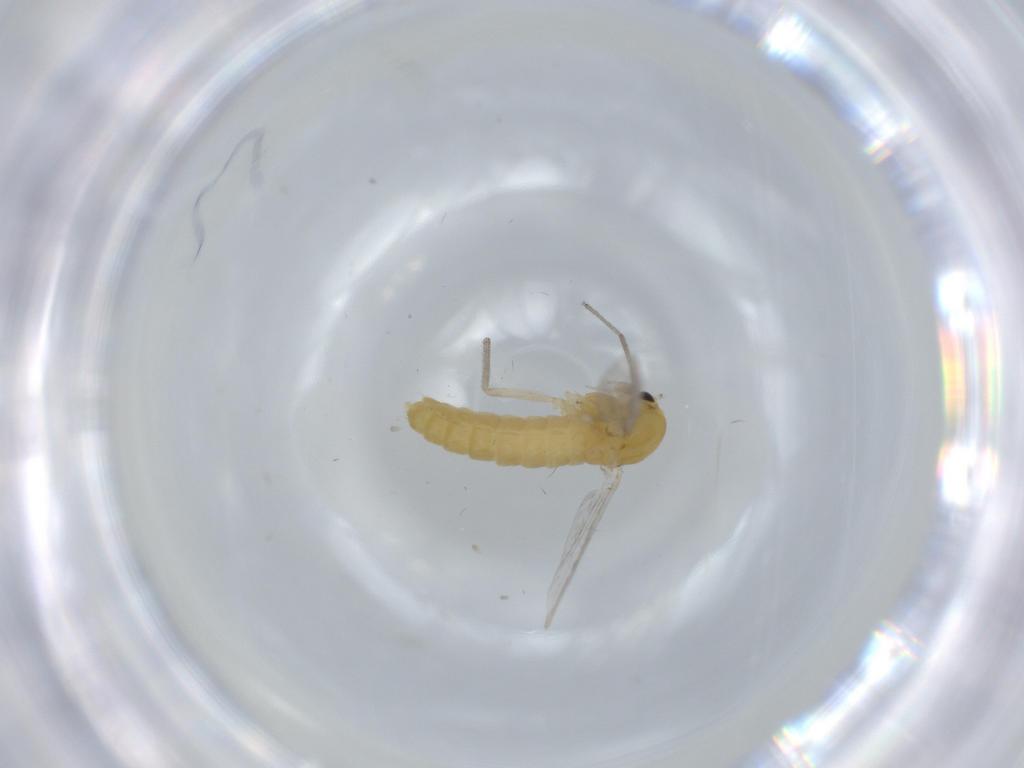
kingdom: Animalia
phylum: Arthropoda
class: Insecta
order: Diptera
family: Chironomidae
